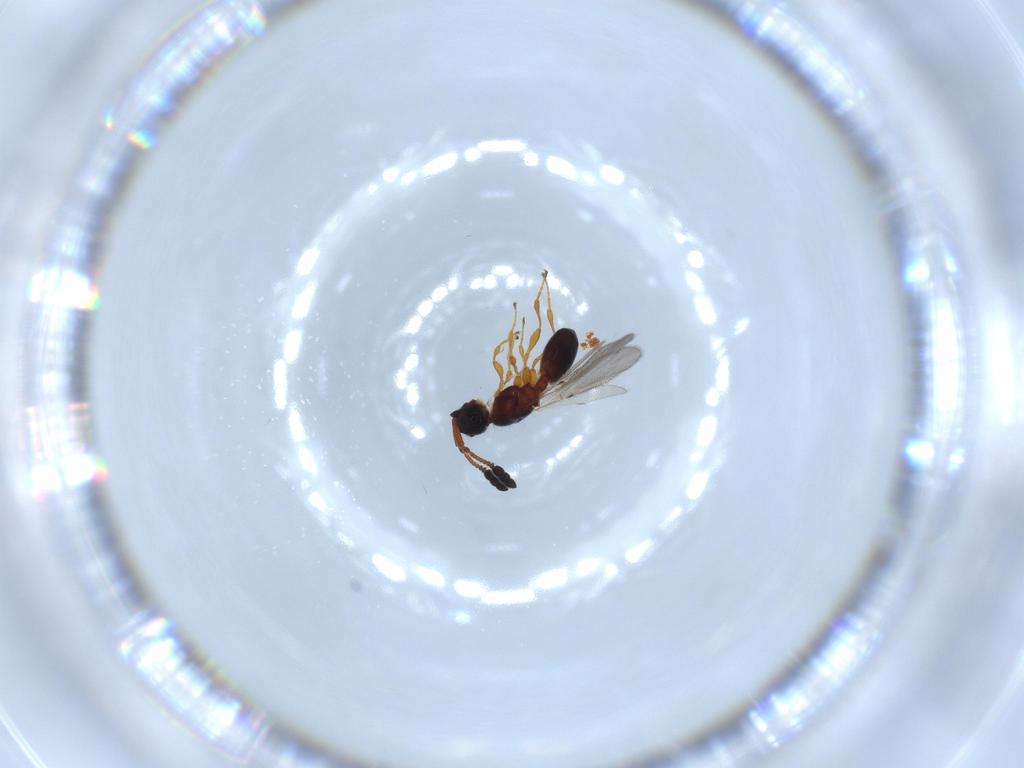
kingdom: Animalia
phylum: Arthropoda
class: Insecta
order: Hymenoptera
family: Diapriidae
